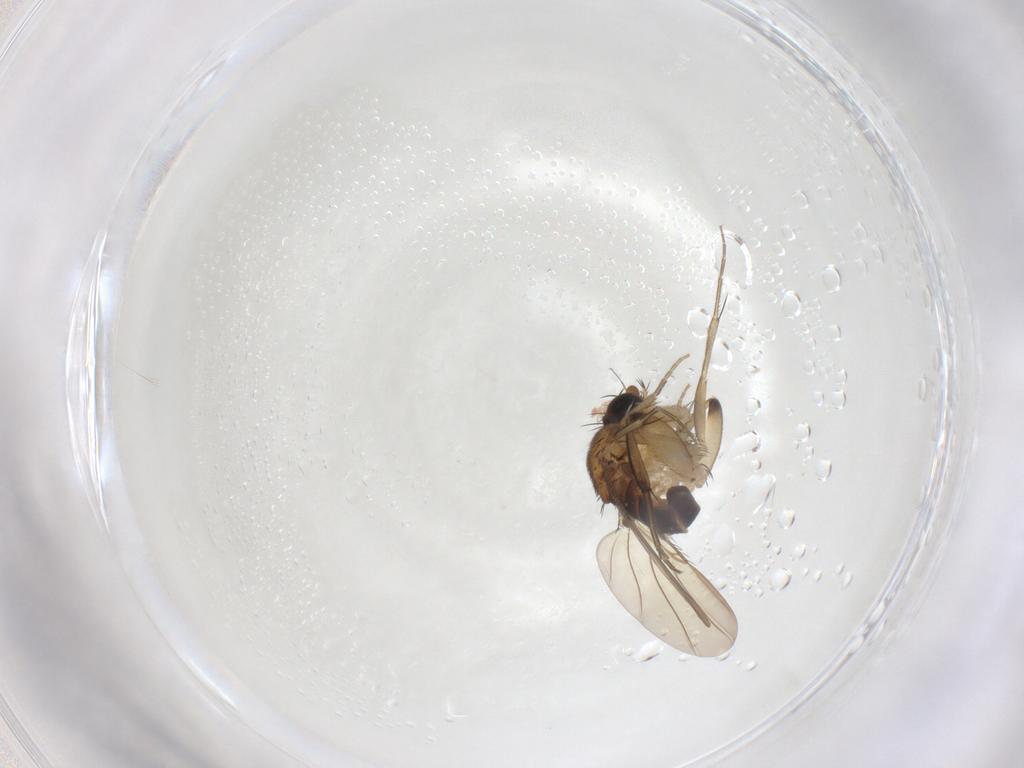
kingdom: Animalia
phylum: Arthropoda
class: Insecta
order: Diptera
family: Phoridae
